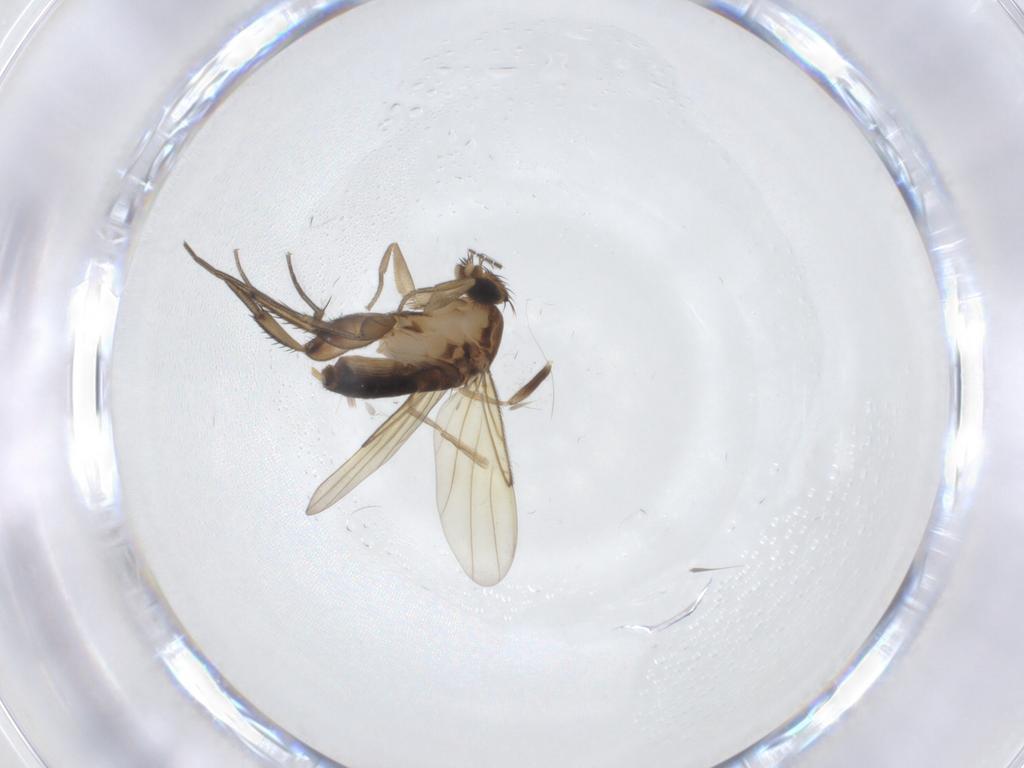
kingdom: Animalia
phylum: Arthropoda
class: Insecta
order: Diptera
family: Phoridae
